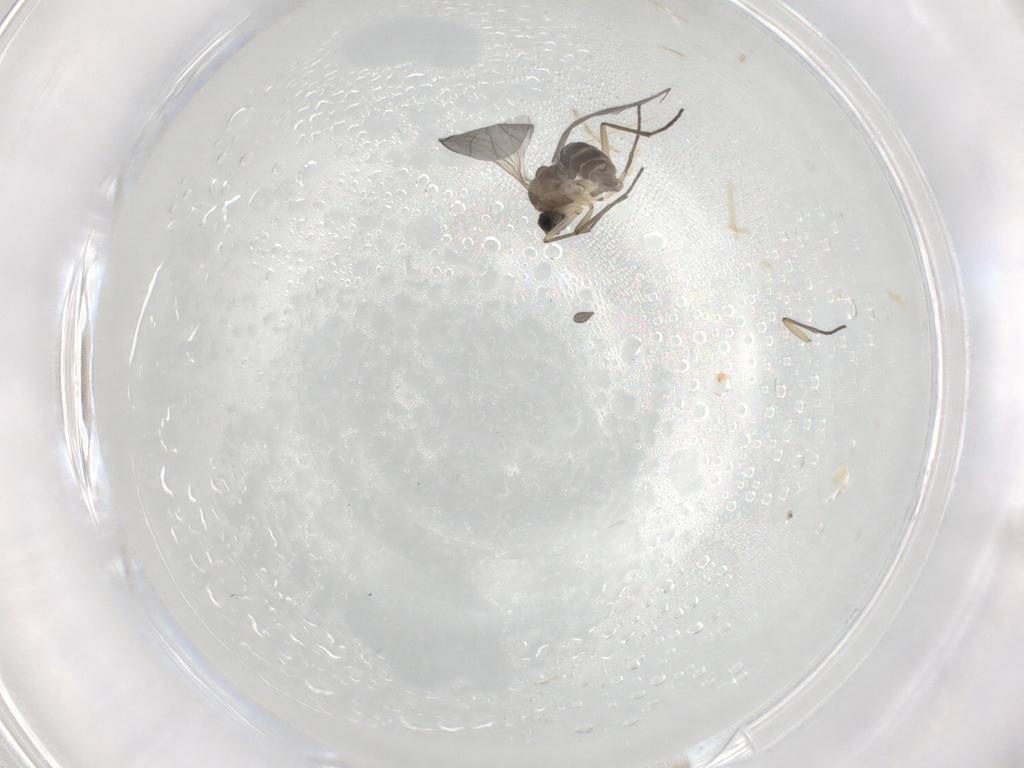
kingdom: Animalia
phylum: Arthropoda
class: Insecta
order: Diptera
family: Sciaridae
